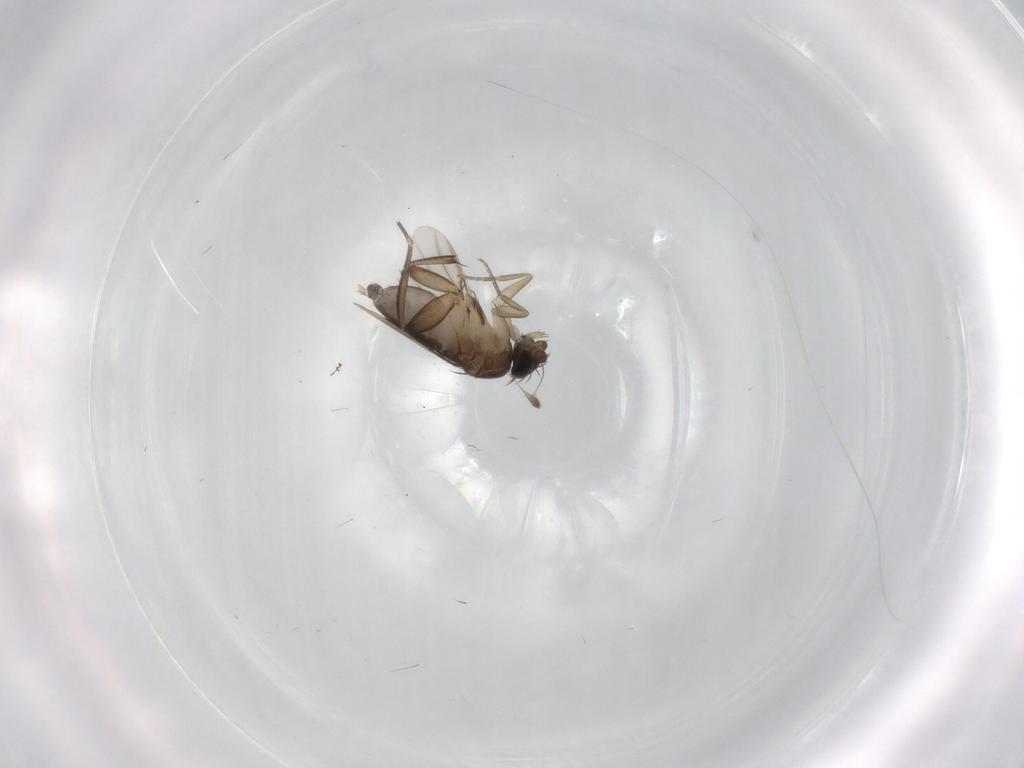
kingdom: Animalia
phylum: Arthropoda
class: Insecta
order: Diptera
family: Phoridae
